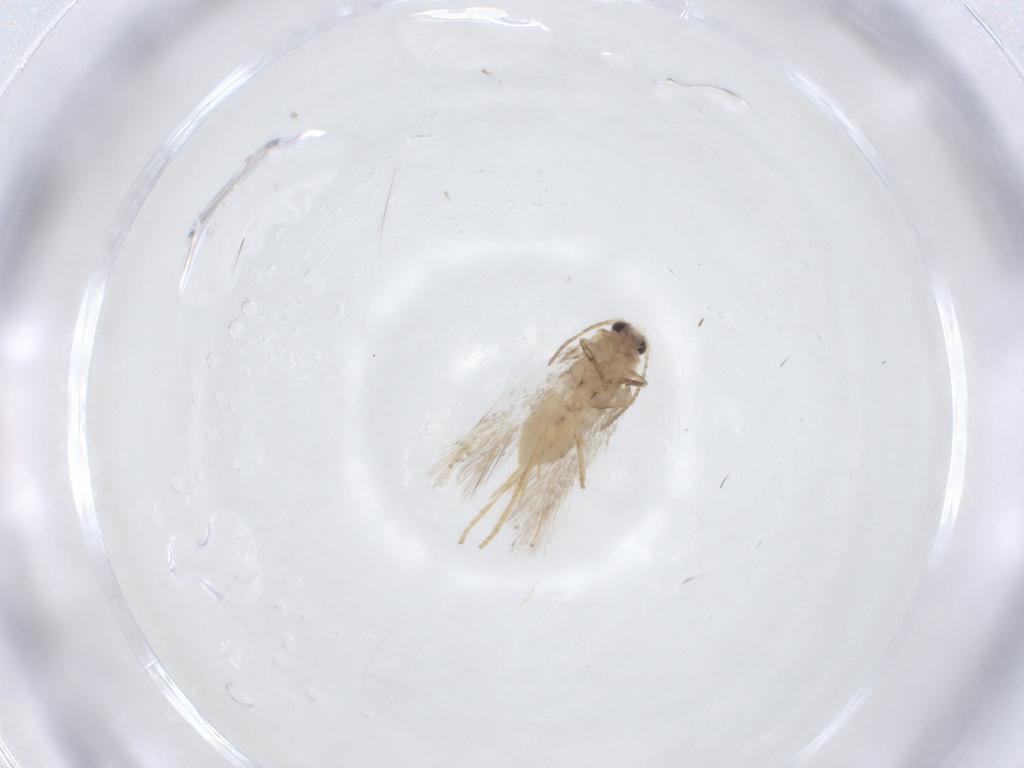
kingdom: Animalia
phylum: Arthropoda
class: Insecta
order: Lepidoptera
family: Nepticulidae
